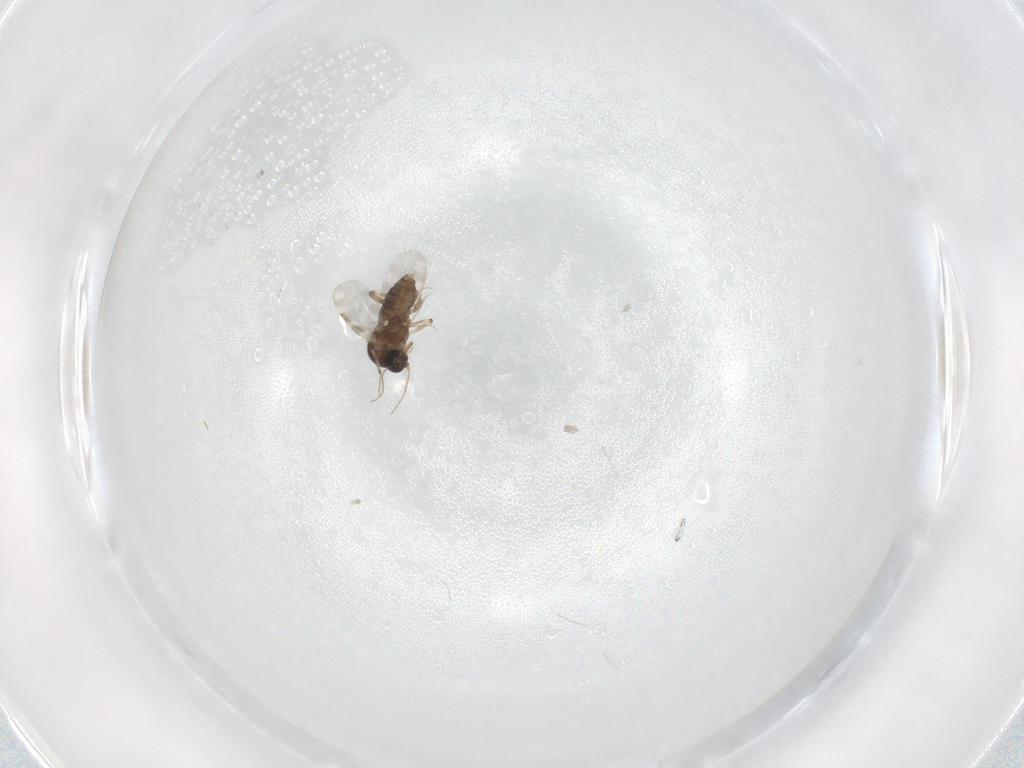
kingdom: Animalia
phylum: Arthropoda
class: Insecta
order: Diptera
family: Ceratopogonidae
